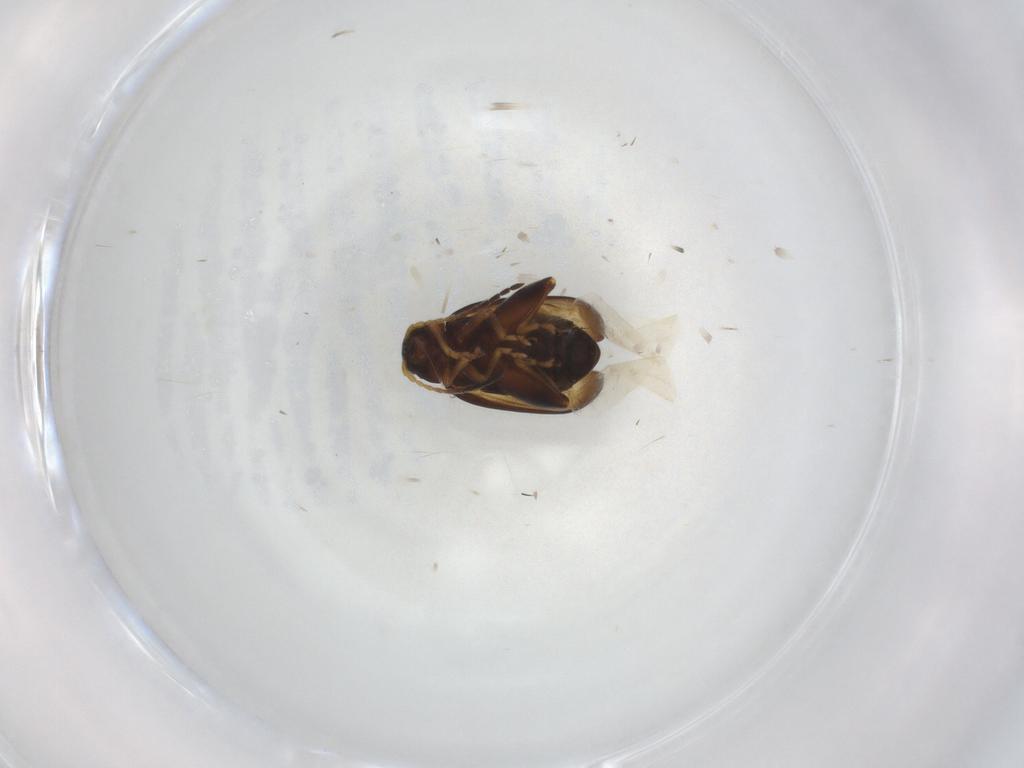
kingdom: Animalia
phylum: Arthropoda
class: Insecta
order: Coleoptera
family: Chrysomelidae
